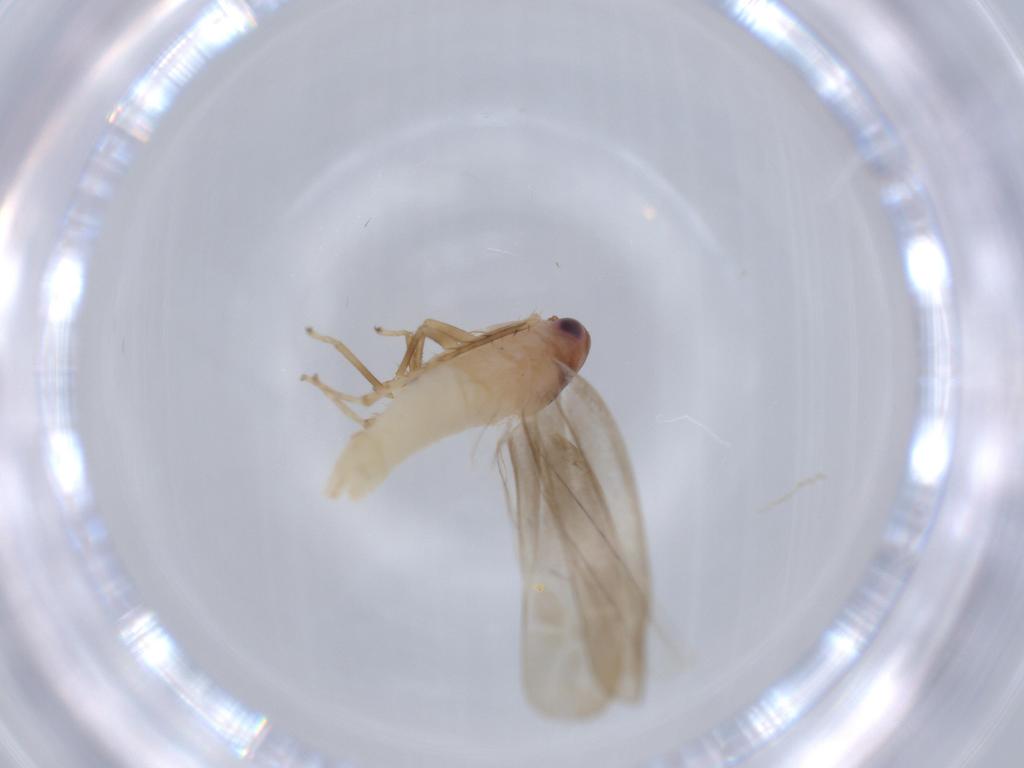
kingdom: Animalia
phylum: Arthropoda
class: Insecta
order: Hemiptera
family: Cicadellidae
